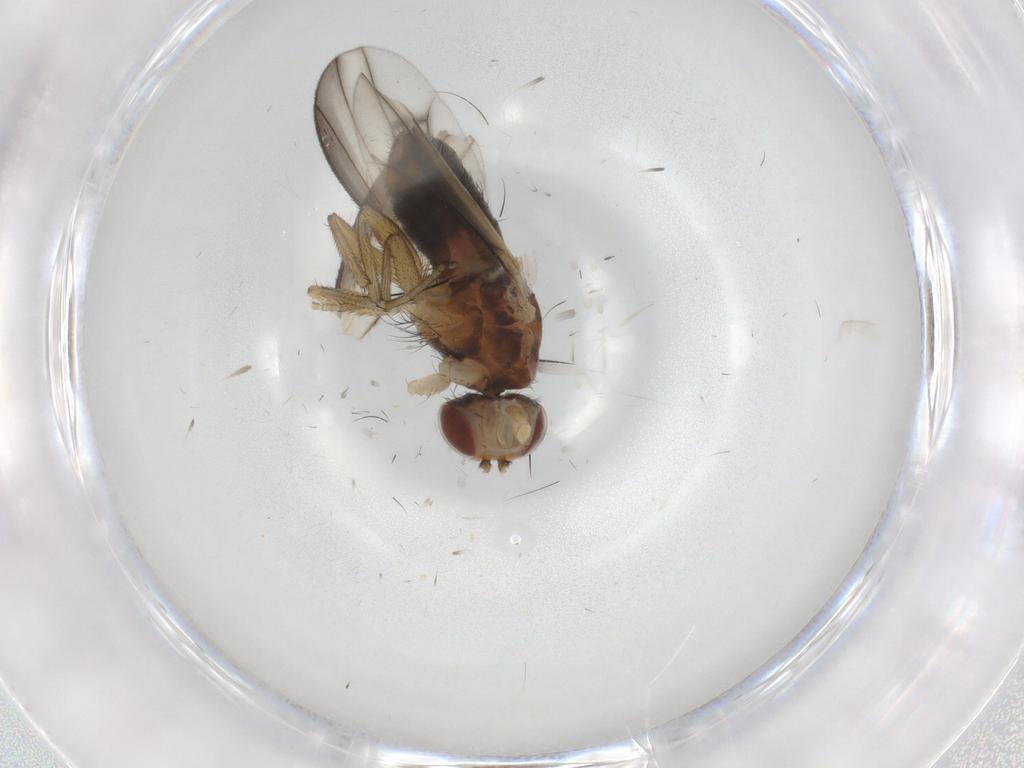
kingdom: Animalia
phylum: Arthropoda
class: Insecta
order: Diptera
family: Heleomyzidae
